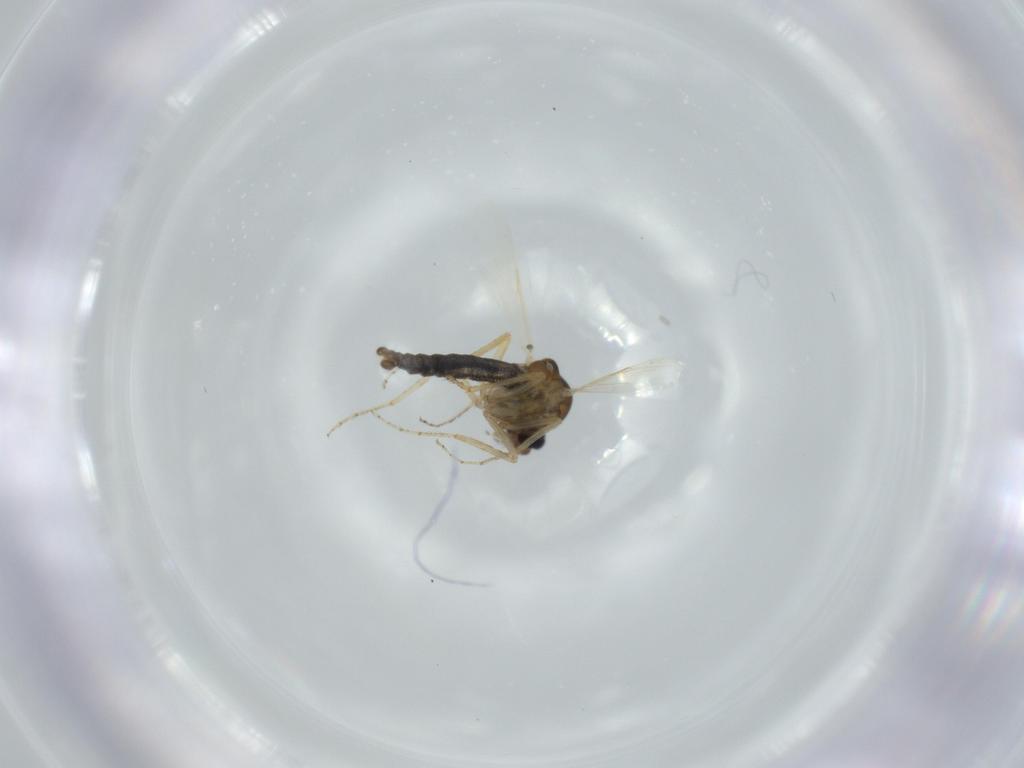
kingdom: Animalia
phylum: Arthropoda
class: Insecta
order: Diptera
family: Ceratopogonidae
